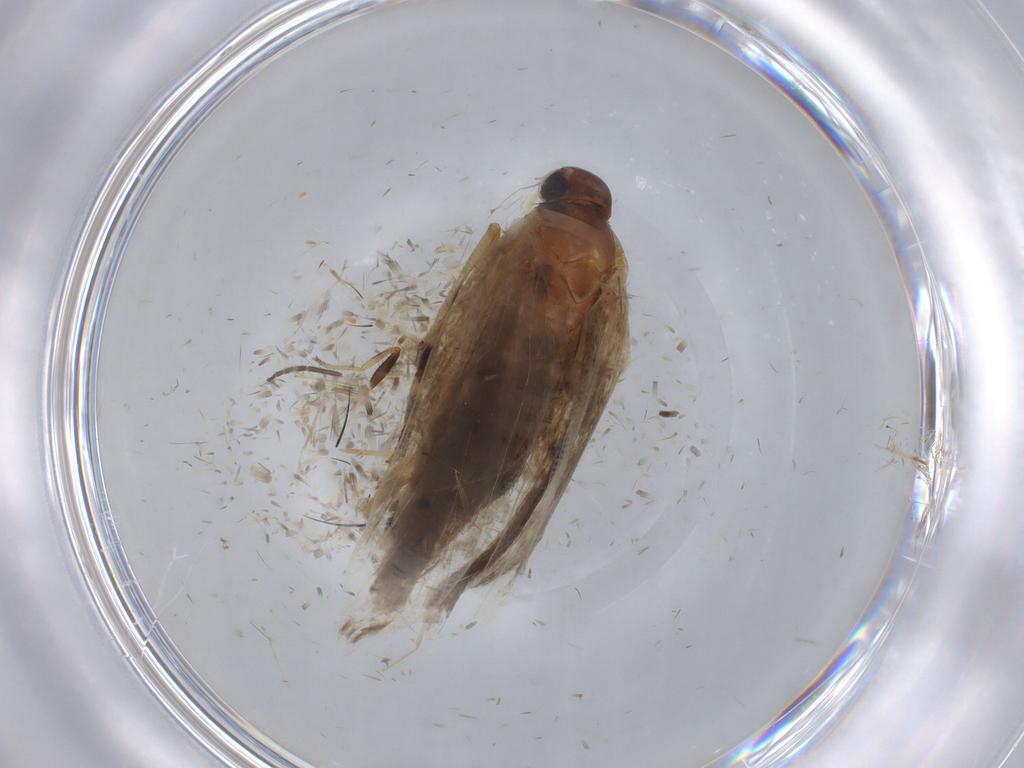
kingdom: Animalia
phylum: Arthropoda
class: Insecta
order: Lepidoptera
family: Gelechiidae
